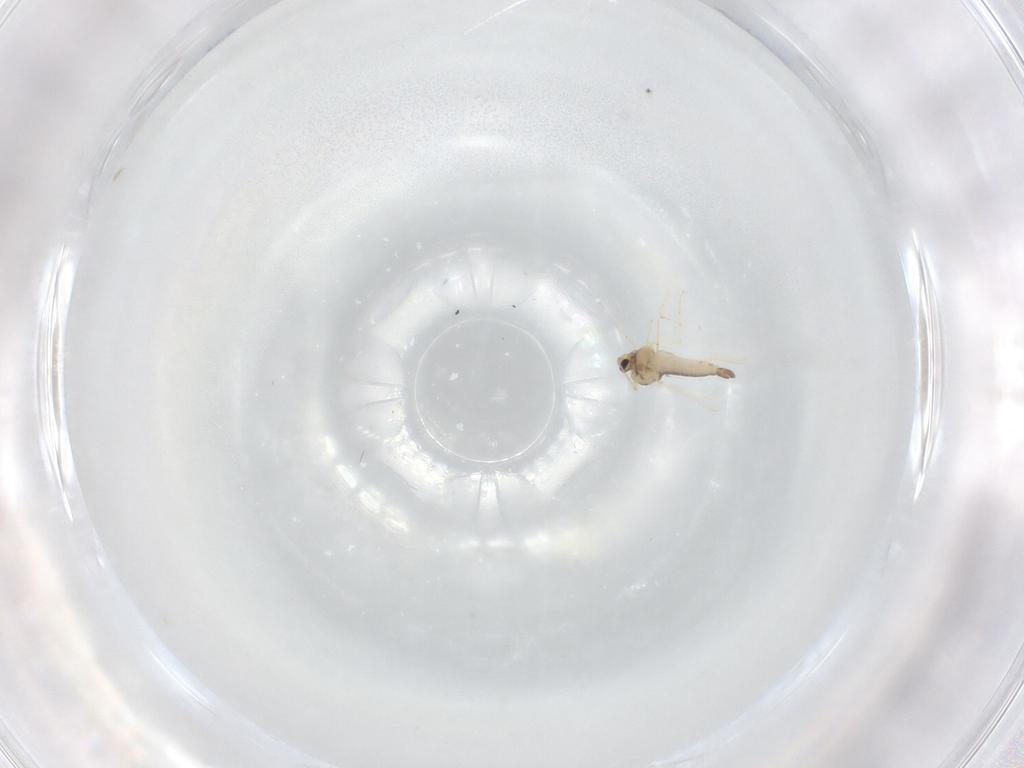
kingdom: Animalia
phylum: Arthropoda
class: Insecta
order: Diptera
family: Chironomidae
